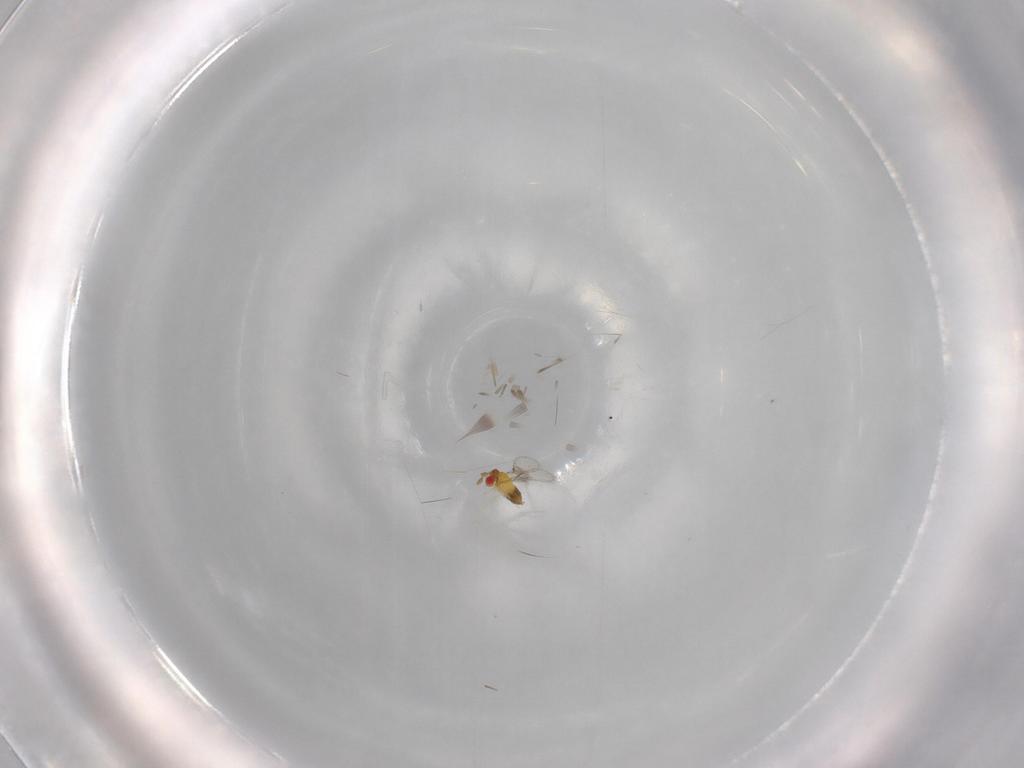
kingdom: Animalia
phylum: Arthropoda
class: Insecta
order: Hymenoptera
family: Trichogrammatidae
